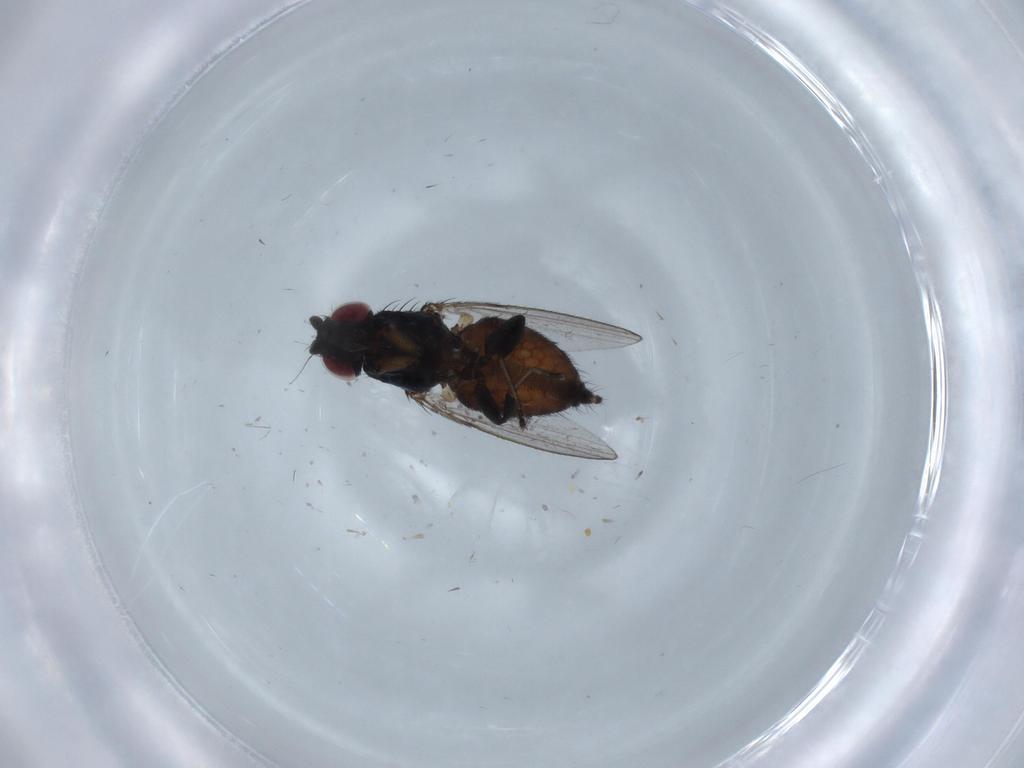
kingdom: Animalia
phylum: Arthropoda
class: Insecta
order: Diptera
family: Milichiidae
